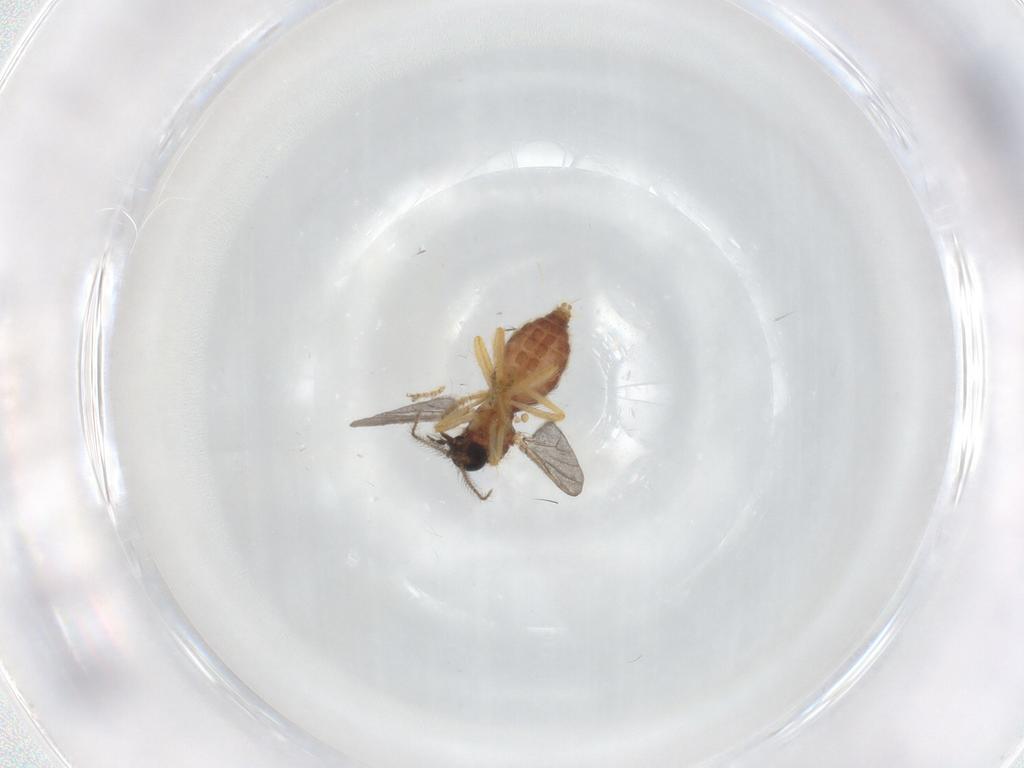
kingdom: Animalia
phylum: Arthropoda
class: Insecta
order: Diptera
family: Ceratopogonidae
